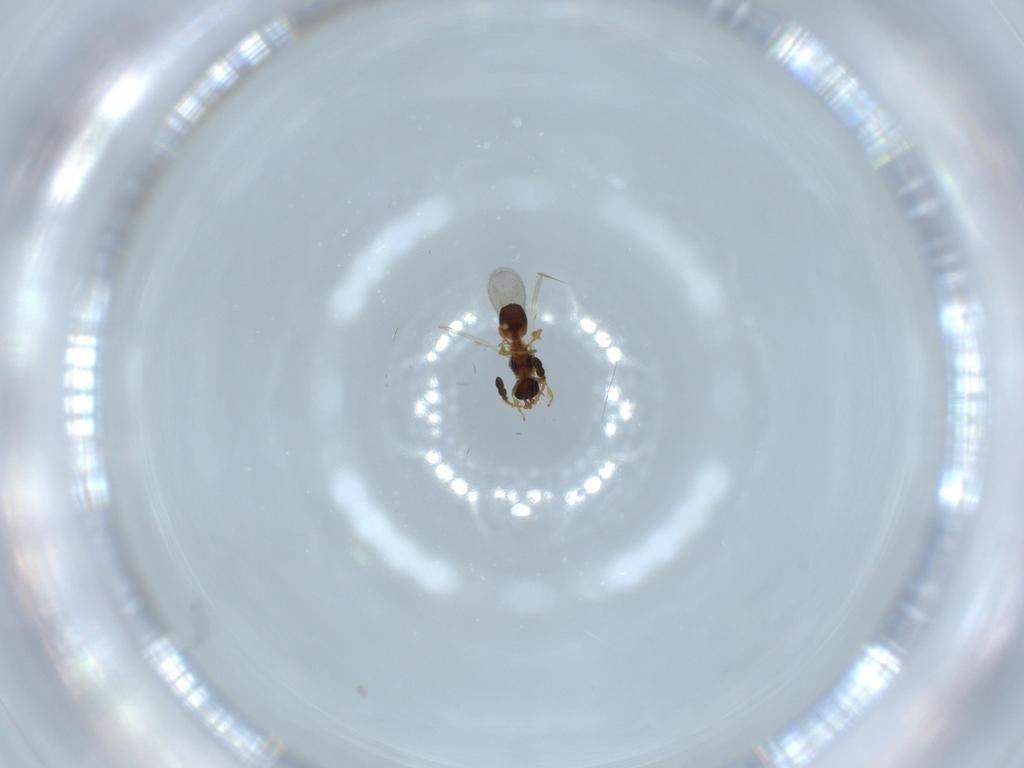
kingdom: Animalia
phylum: Arthropoda
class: Insecta
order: Hymenoptera
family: Diapriidae
